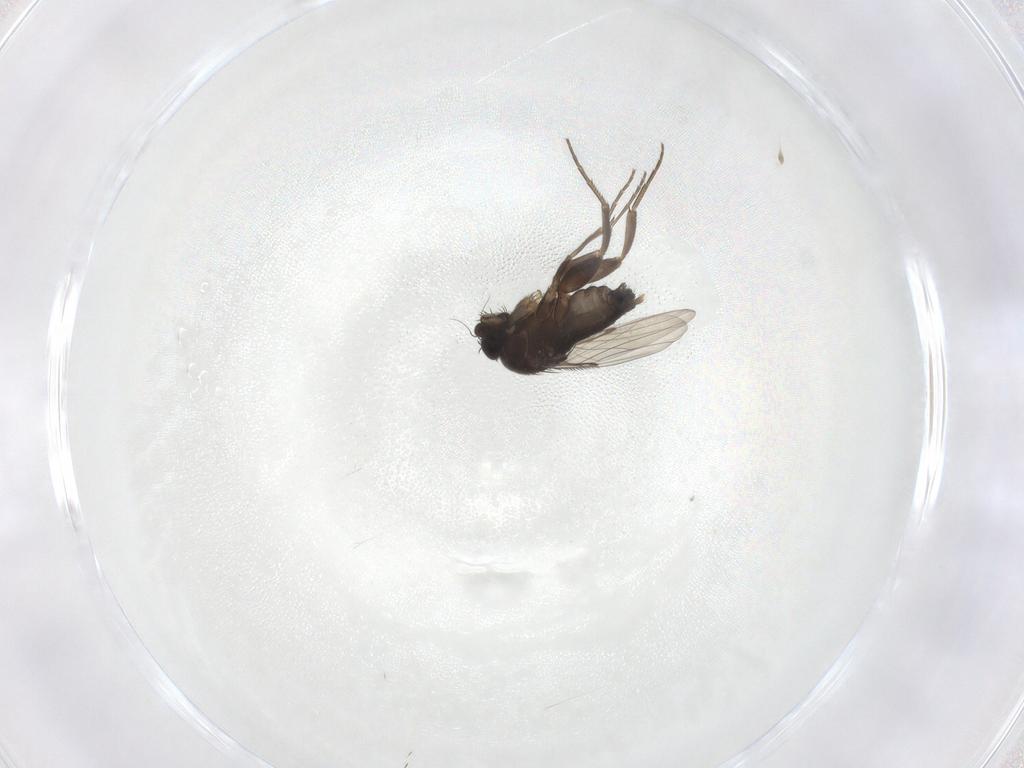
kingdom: Animalia
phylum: Arthropoda
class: Insecta
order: Diptera
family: Phoridae
